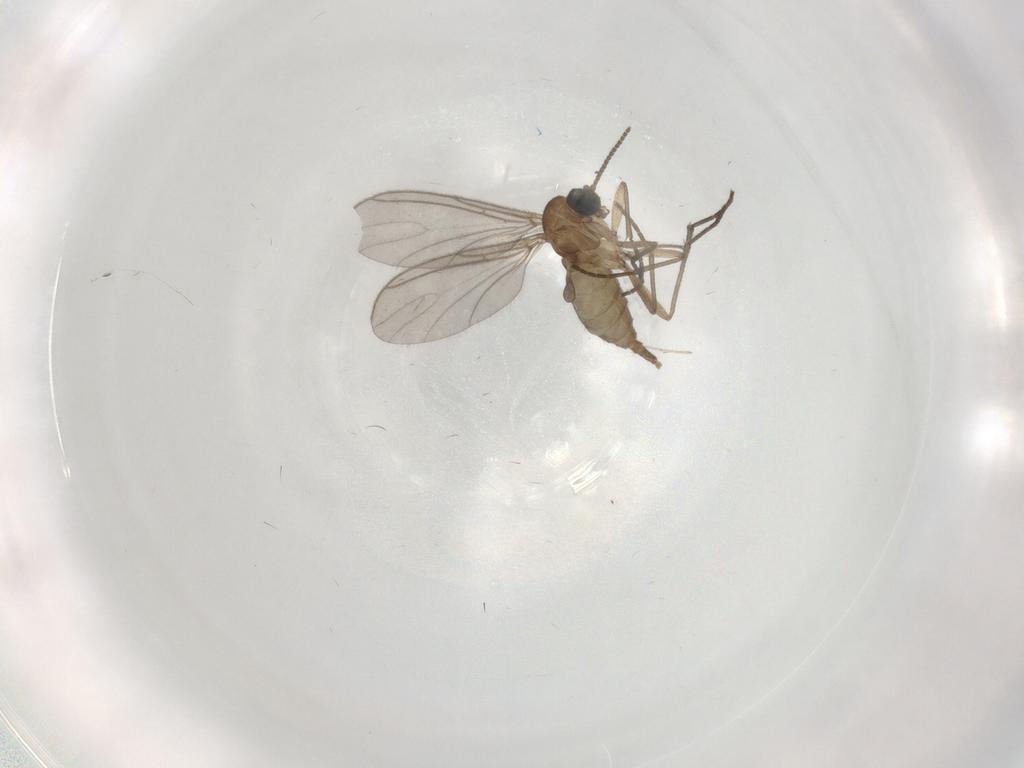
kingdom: Animalia
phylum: Arthropoda
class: Insecta
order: Diptera
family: Sciaridae
